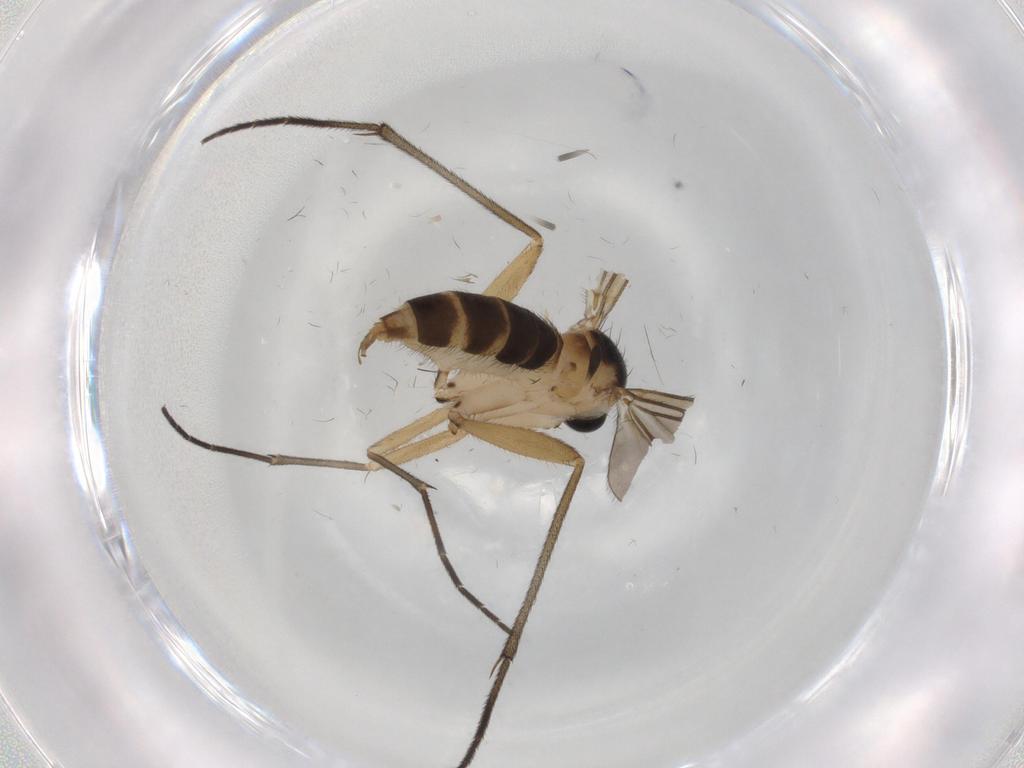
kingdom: Animalia
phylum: Arthropoda
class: Insecta
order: Diptera
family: Sciaridae
